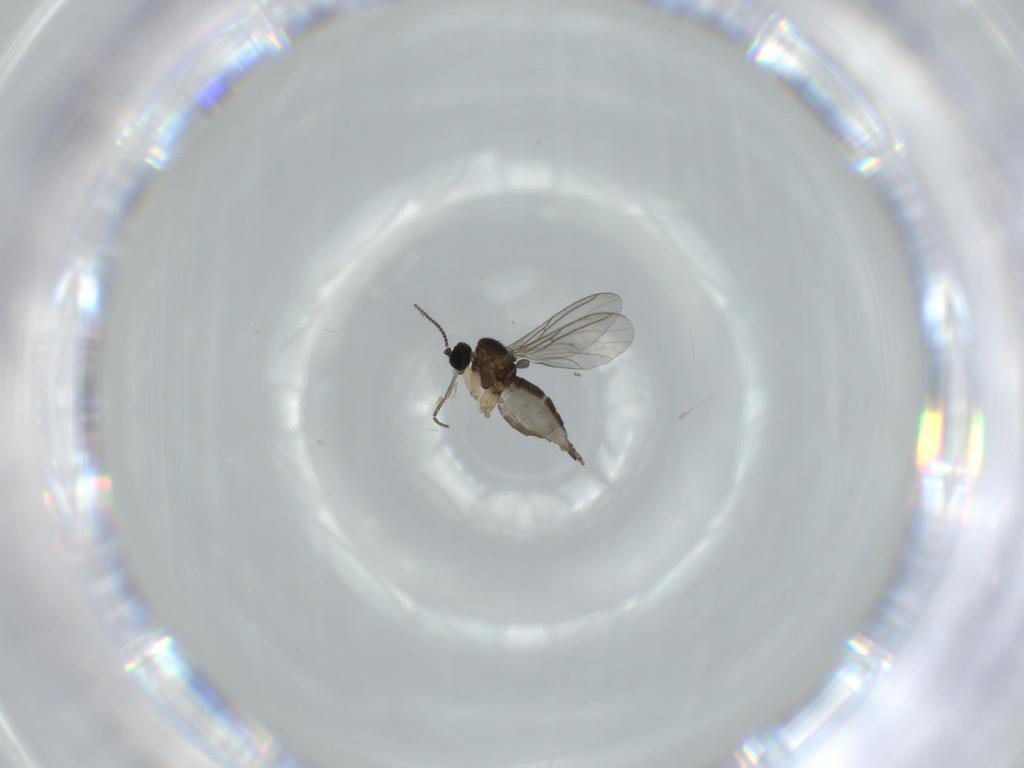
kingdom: Animalia
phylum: Arthropoda
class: Insecta
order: Diptera
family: Sciaridae
